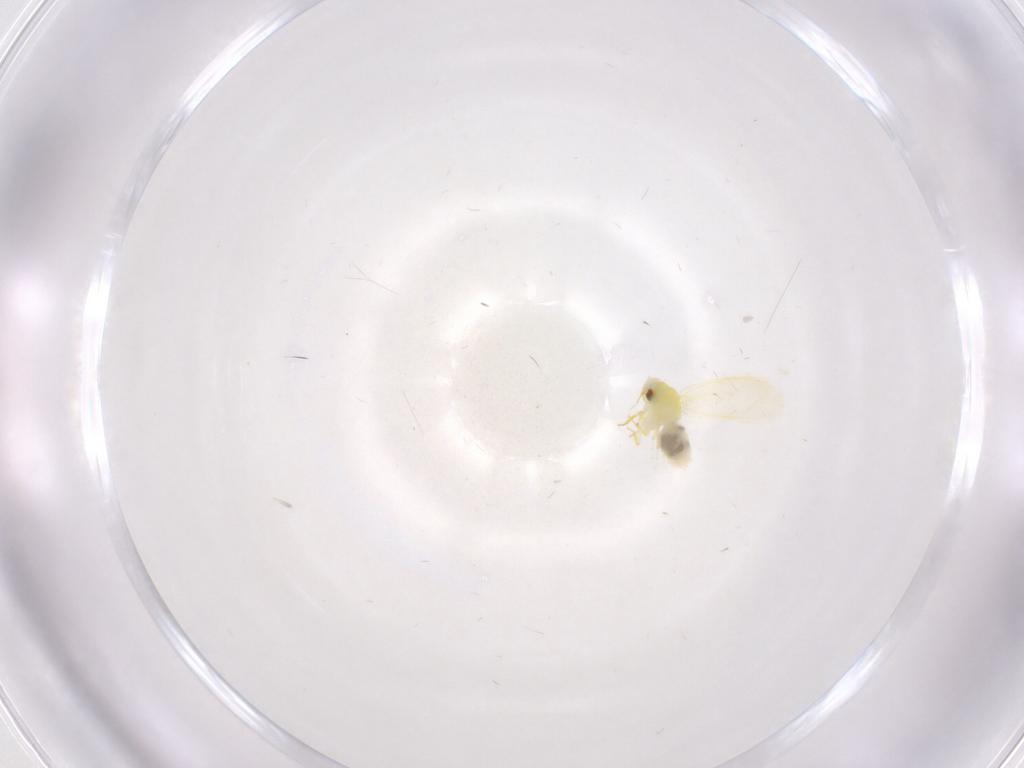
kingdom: Animalia
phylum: Arthropoda
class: Insecta
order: Hemiptera
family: Aleyrodidae
